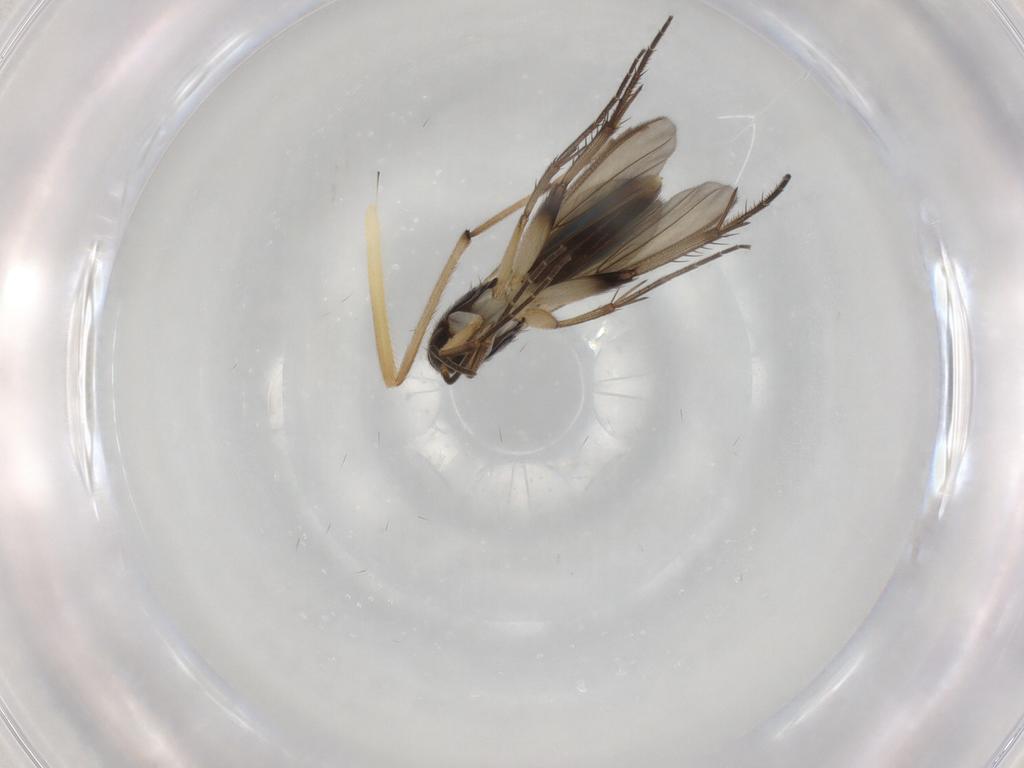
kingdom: Animalia
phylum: Arthropoda
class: Insecta
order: Diptera
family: Mycetophilidae
